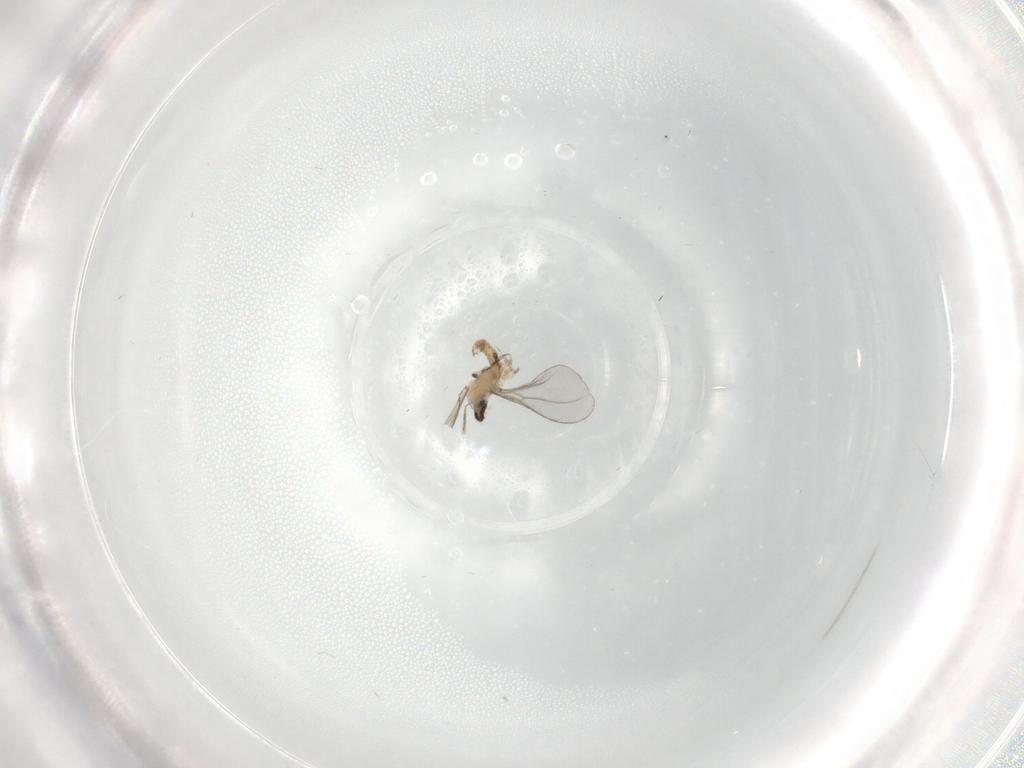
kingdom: Animalia
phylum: Arthropoda
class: Insecta
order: Diptera
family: Cecidomyiidae
